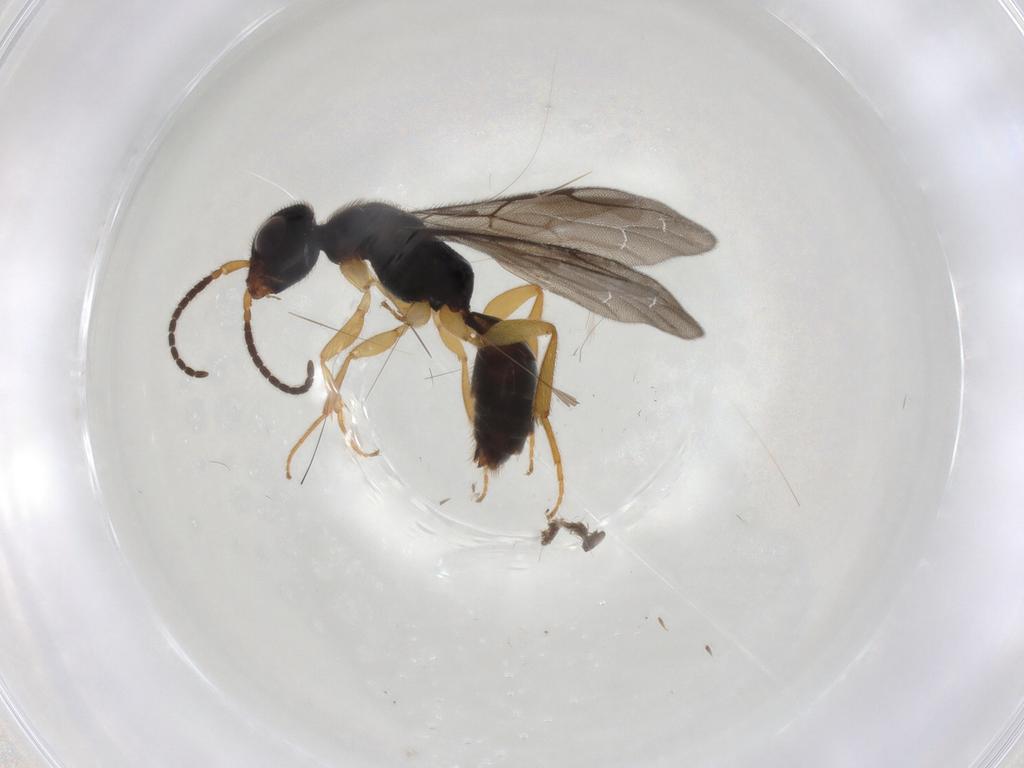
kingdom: Animalia
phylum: Arthropoda
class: Insecta
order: Hymenoptera
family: Bethylidae
